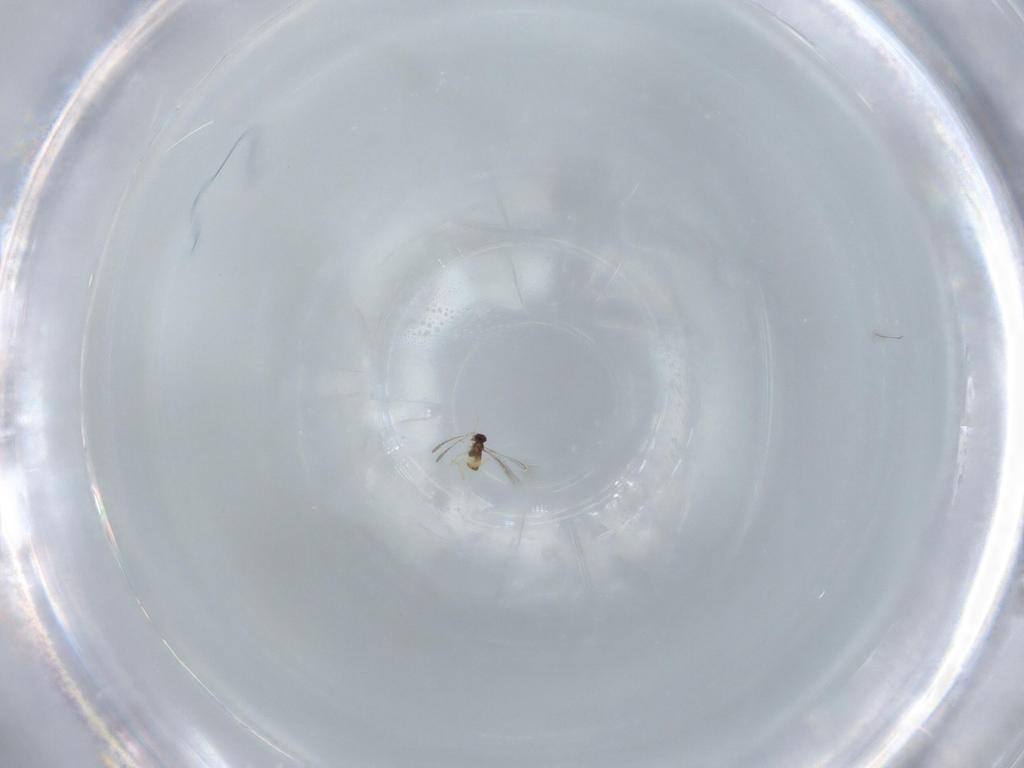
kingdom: Animalia
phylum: Arthropoda
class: Insecta
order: Hymenoptera
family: Mymaridae
